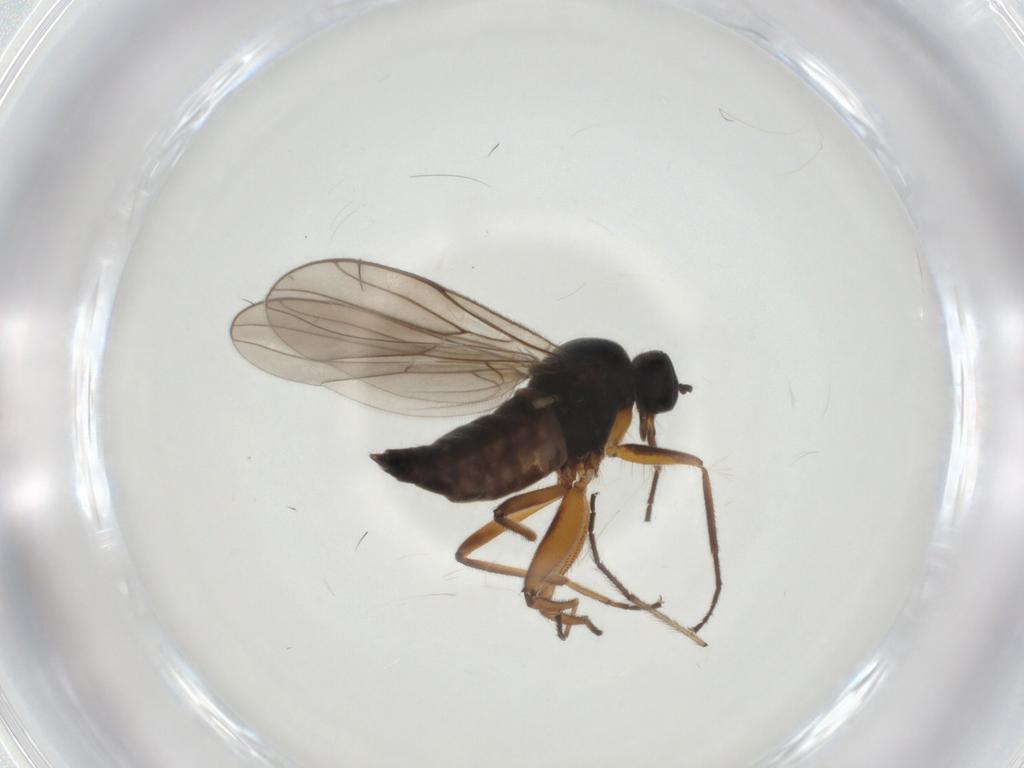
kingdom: Animalia
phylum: Arthropoda
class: Insecta
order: Diptera
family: Hybotidae
